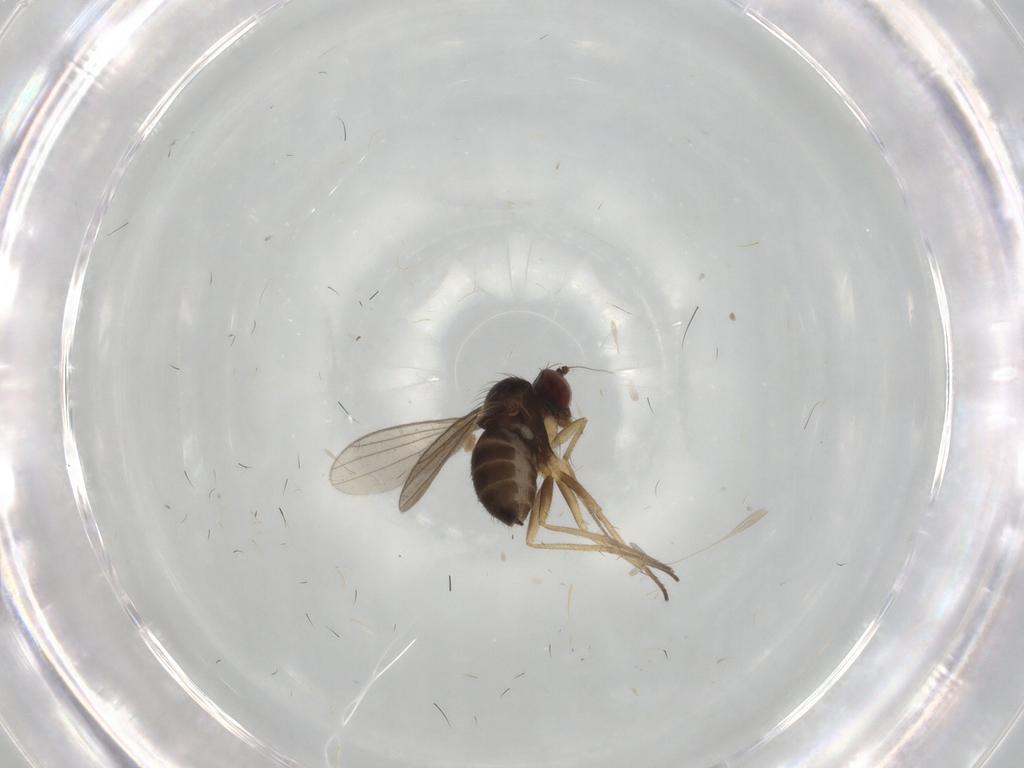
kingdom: Animalia
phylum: Arthropoda
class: Insecta
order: Diptera
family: Dolichopodidae
